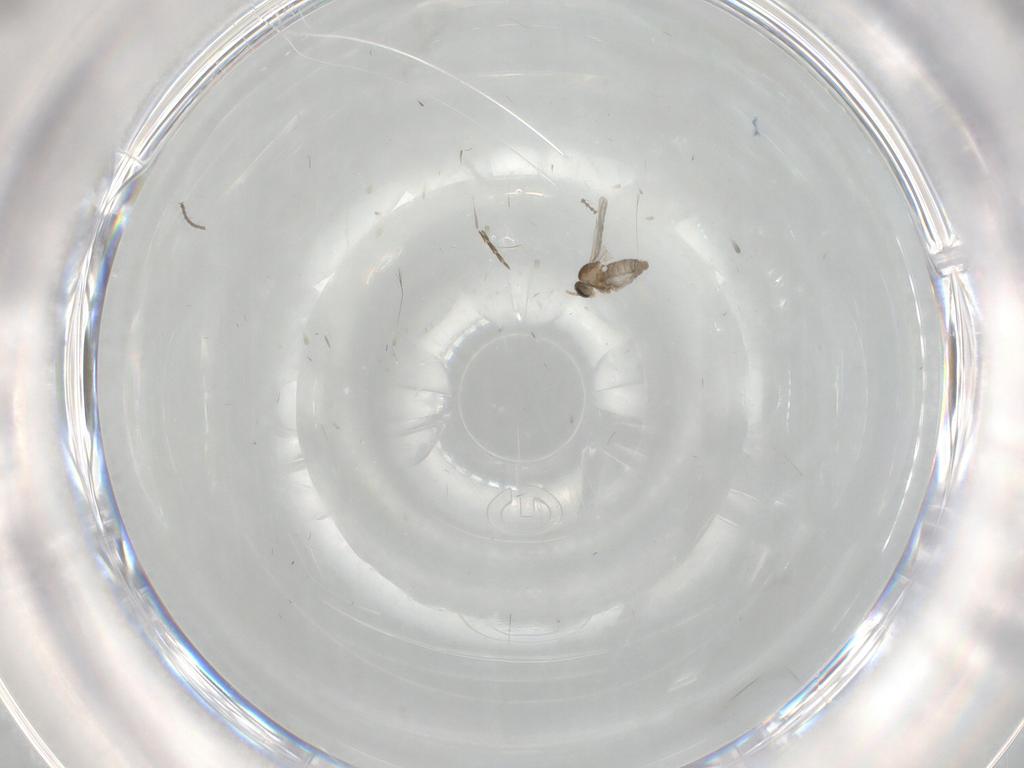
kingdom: Animalia
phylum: Arthropoda
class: Insecta
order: Diptera
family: Cecidomyiidae
